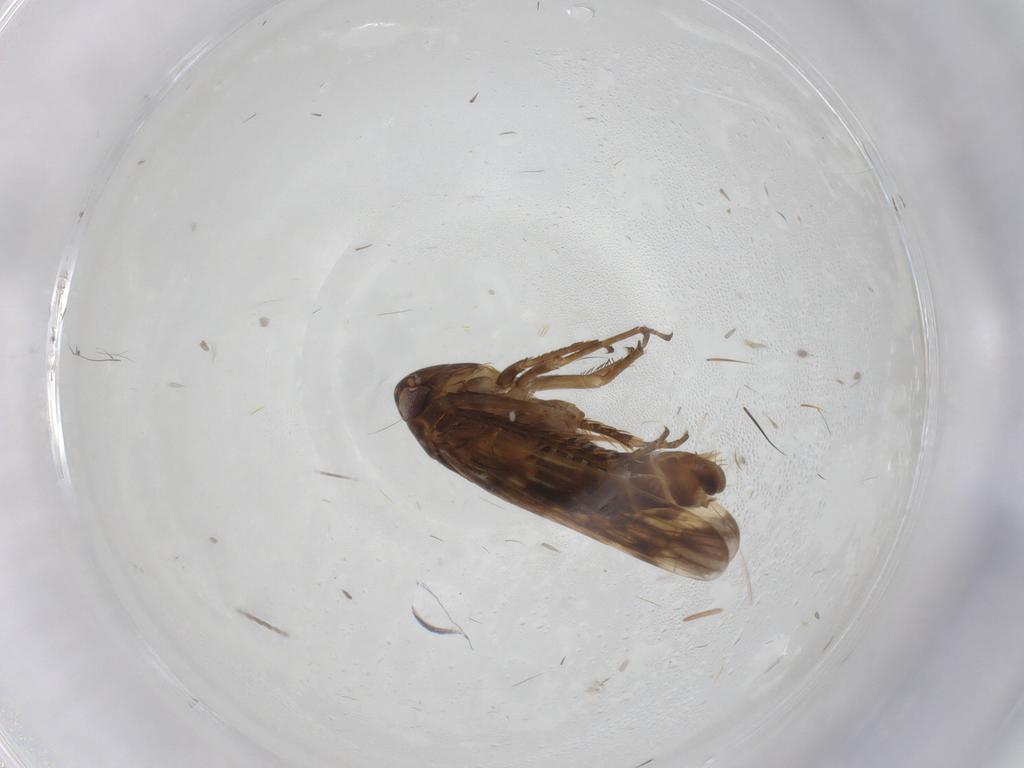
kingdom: Animalia
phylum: Arthropoda
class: Insecta
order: Hemiptera
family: Cicadellidae
